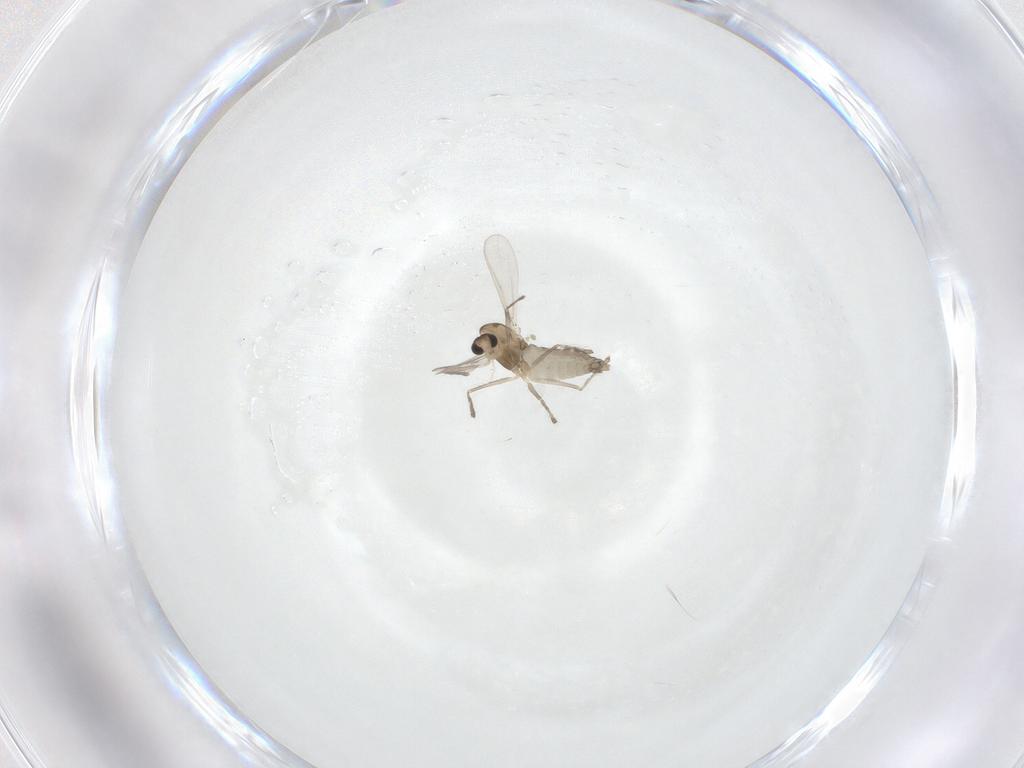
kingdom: Animalia
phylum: Arthropoda
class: Insecta
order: Diptera
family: Chironomidae
